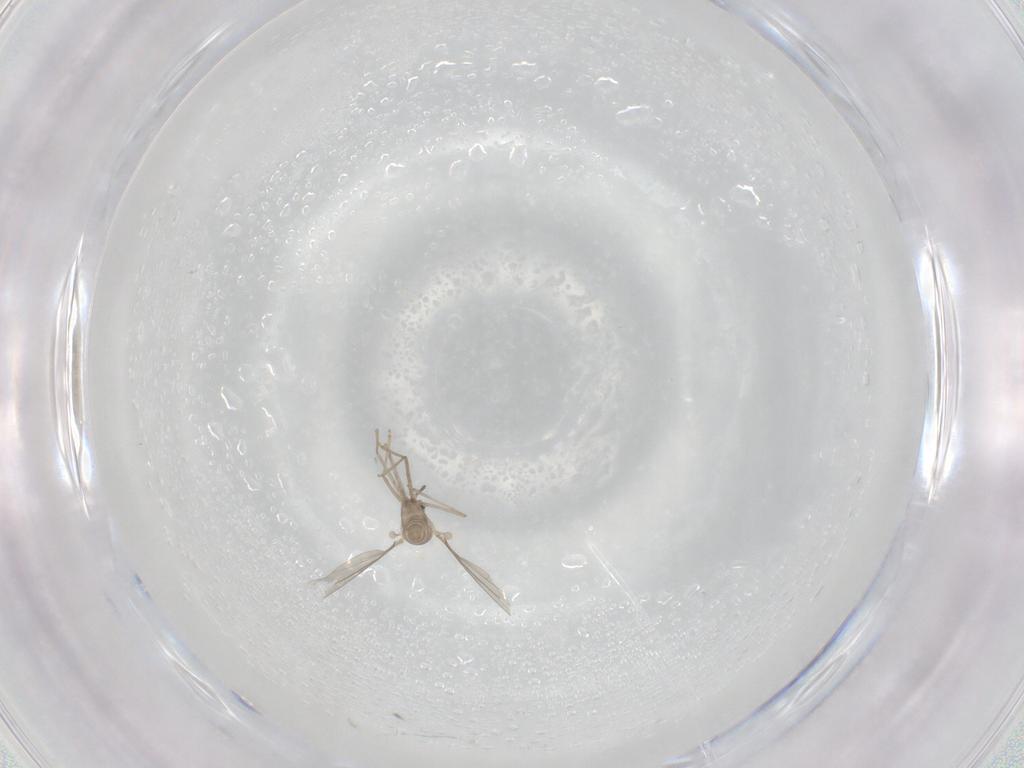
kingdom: Animalia
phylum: Arthropoda
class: Insecta
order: Diptera
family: Cecidomyiidae
